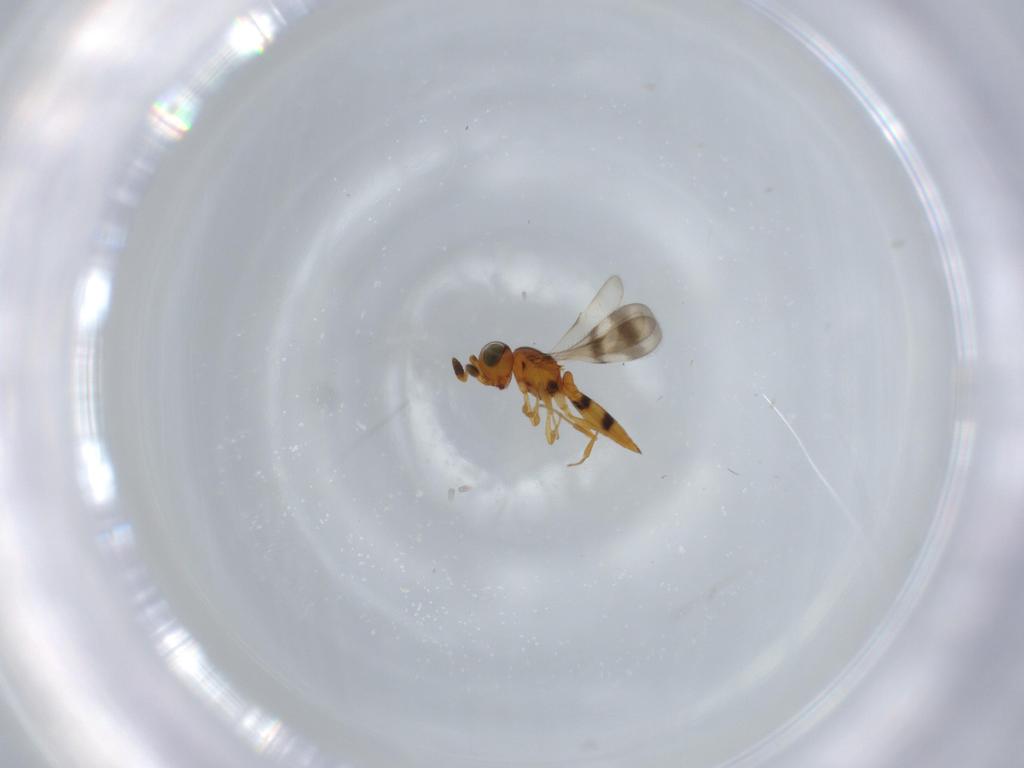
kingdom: Animalia
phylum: Arthropoda
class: Insecta
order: Hymenoptera
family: Scelionidae
